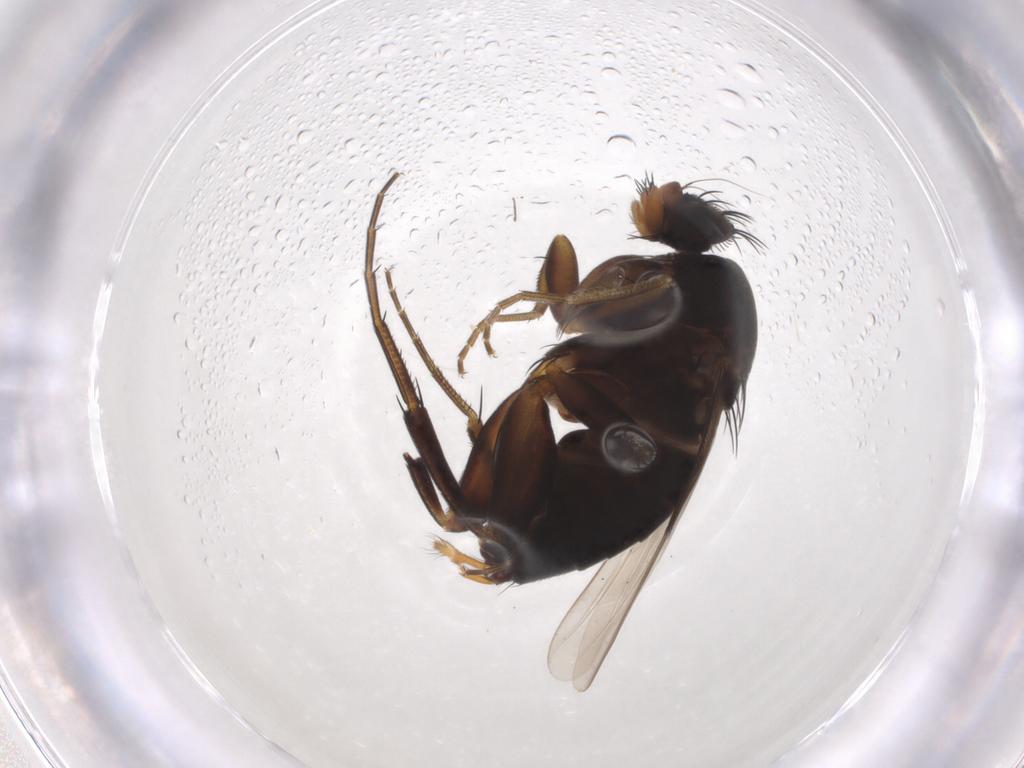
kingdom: Animalia
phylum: Arthropoda
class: Insecta
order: Diptera
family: Phoridae
